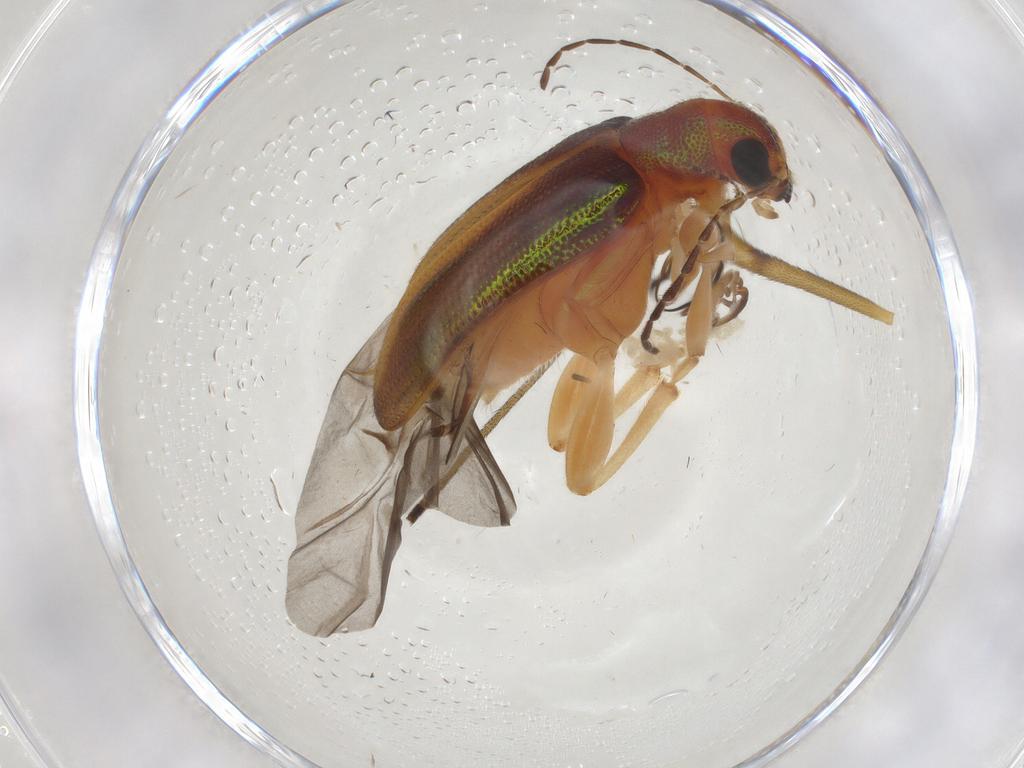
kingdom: Animalia
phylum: Arthropoda
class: Insecta
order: Coleoptera
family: Chrysomelidae
